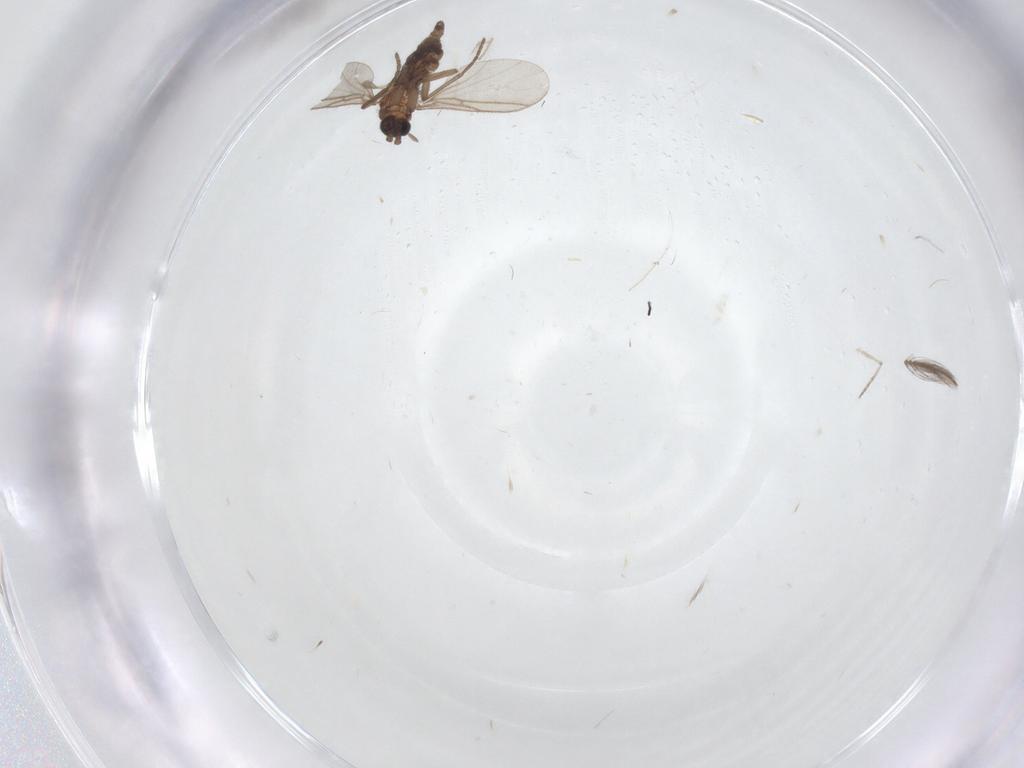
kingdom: Animalia
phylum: Arthropoda
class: Insecta
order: Diptera
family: Ceratopogonidae
